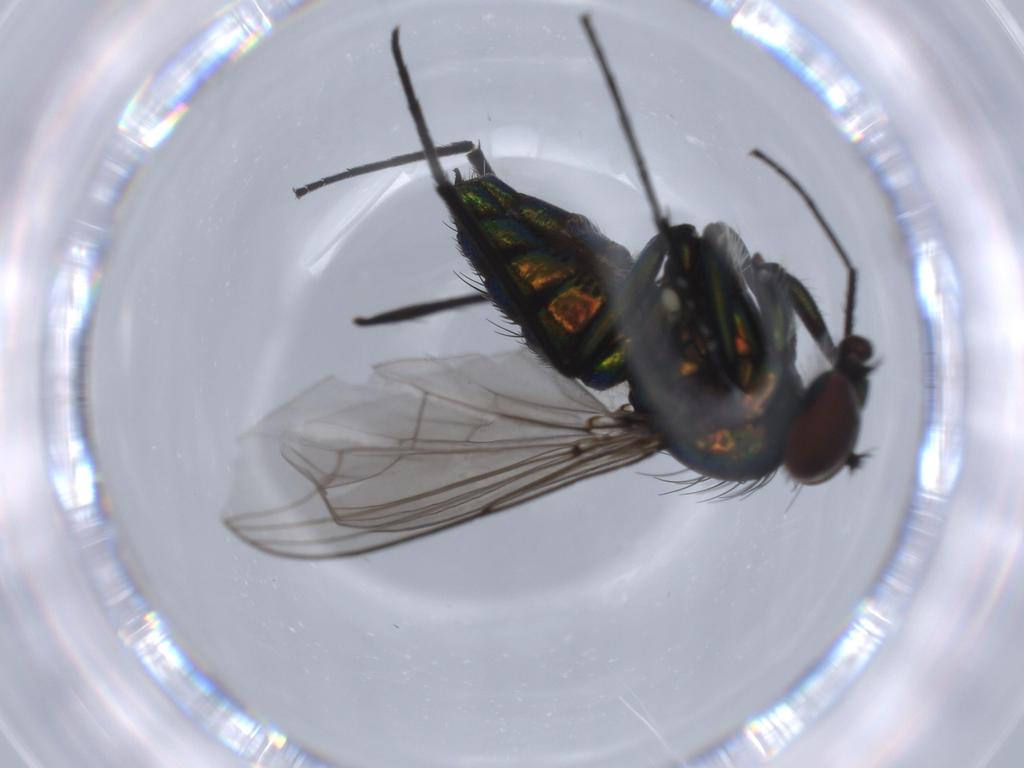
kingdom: Animalia
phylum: Arthropoda
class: Insecta
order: Diptera
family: Dolichopodidae
